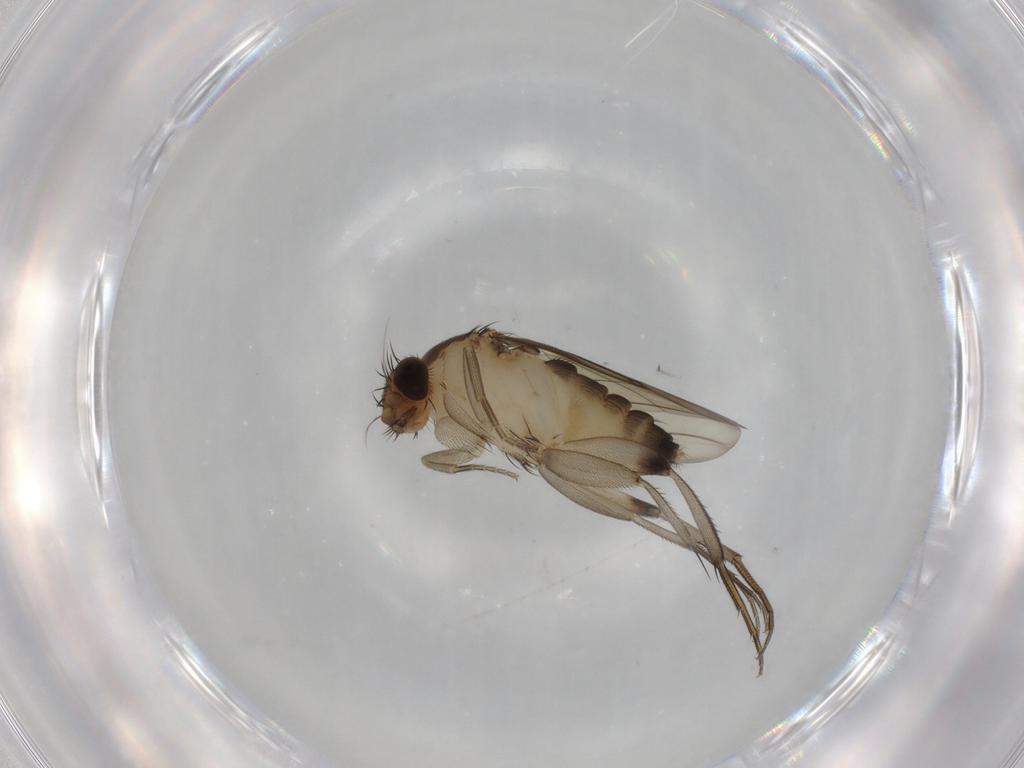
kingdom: Animalia
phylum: Arthropoda
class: Insecta
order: Diptera
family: Phoridae
